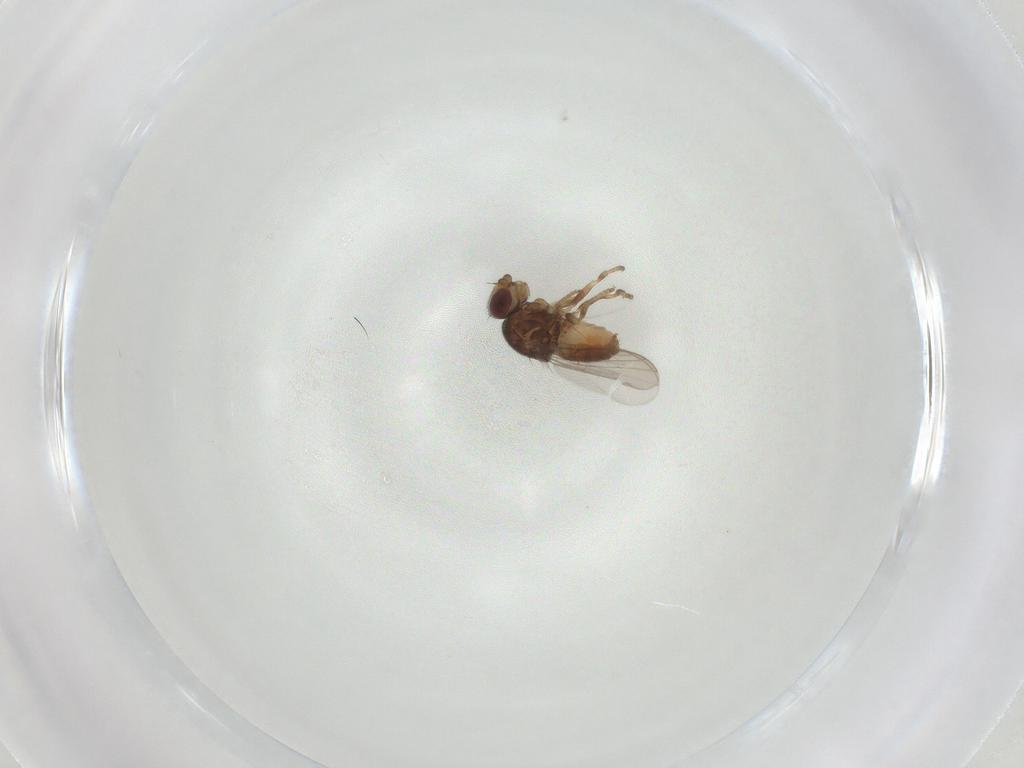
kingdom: Animalia
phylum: Arthropoda
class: Insecta
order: Diptera
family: Chloropidae
